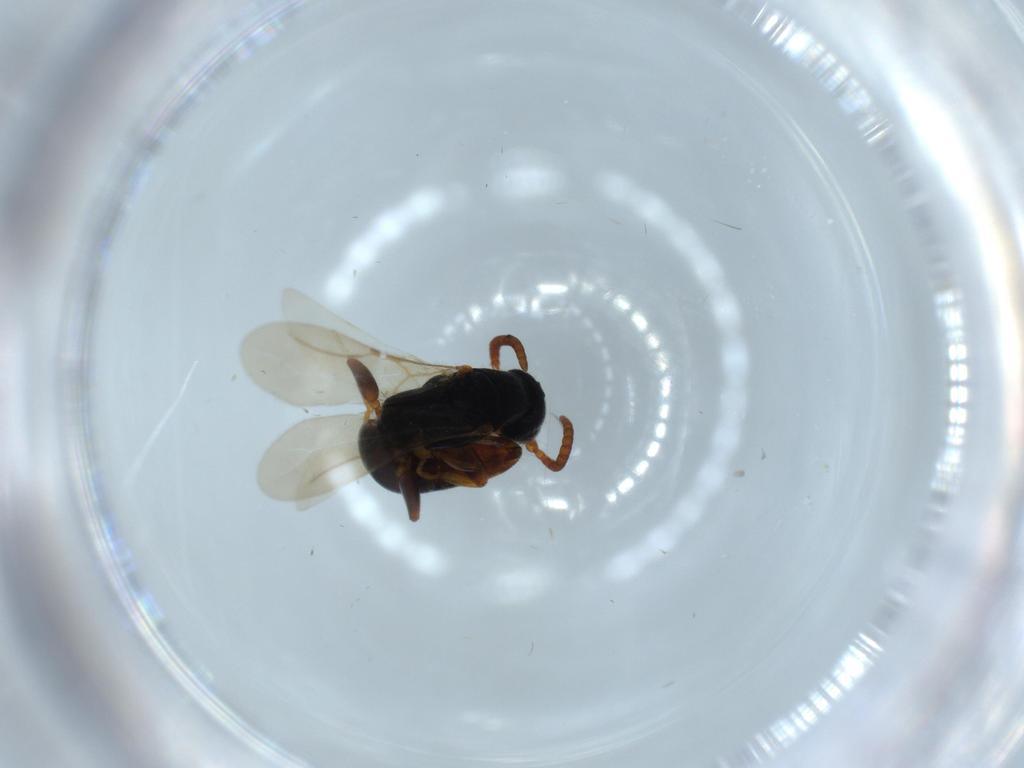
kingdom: Animalia
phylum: Arthropoda
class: Insecta
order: Hymenoptera
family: Bethylidae
